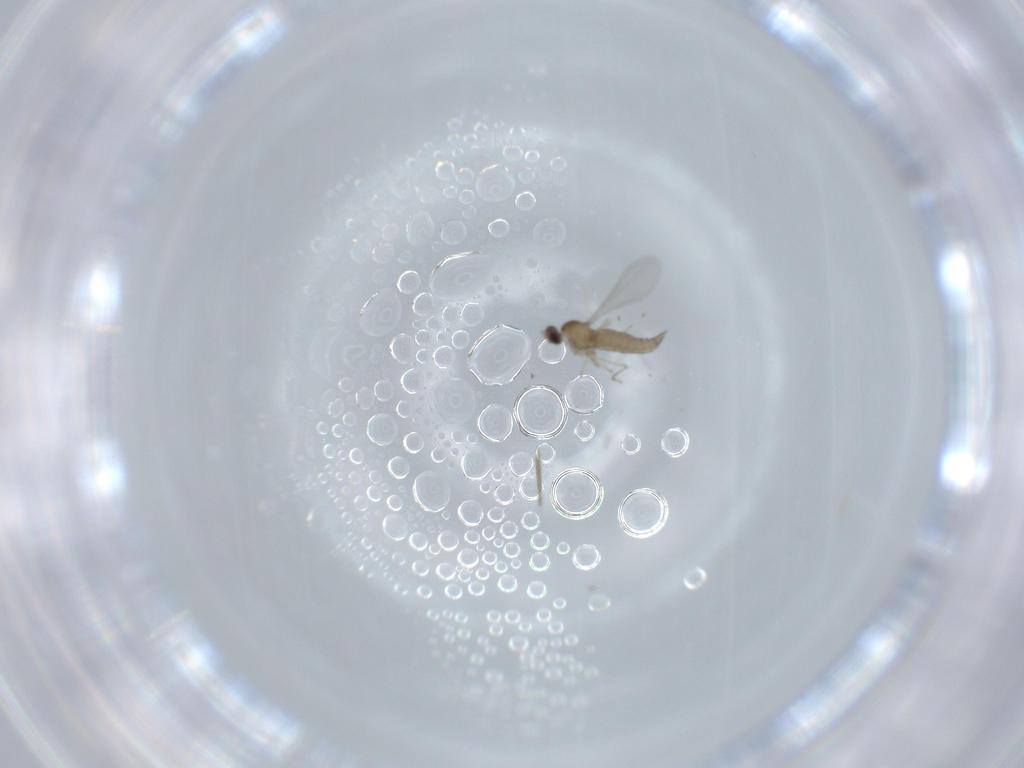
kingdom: Animalia
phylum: Arthropoda
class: Insecta
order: Diptera
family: Cecidomyiidae
